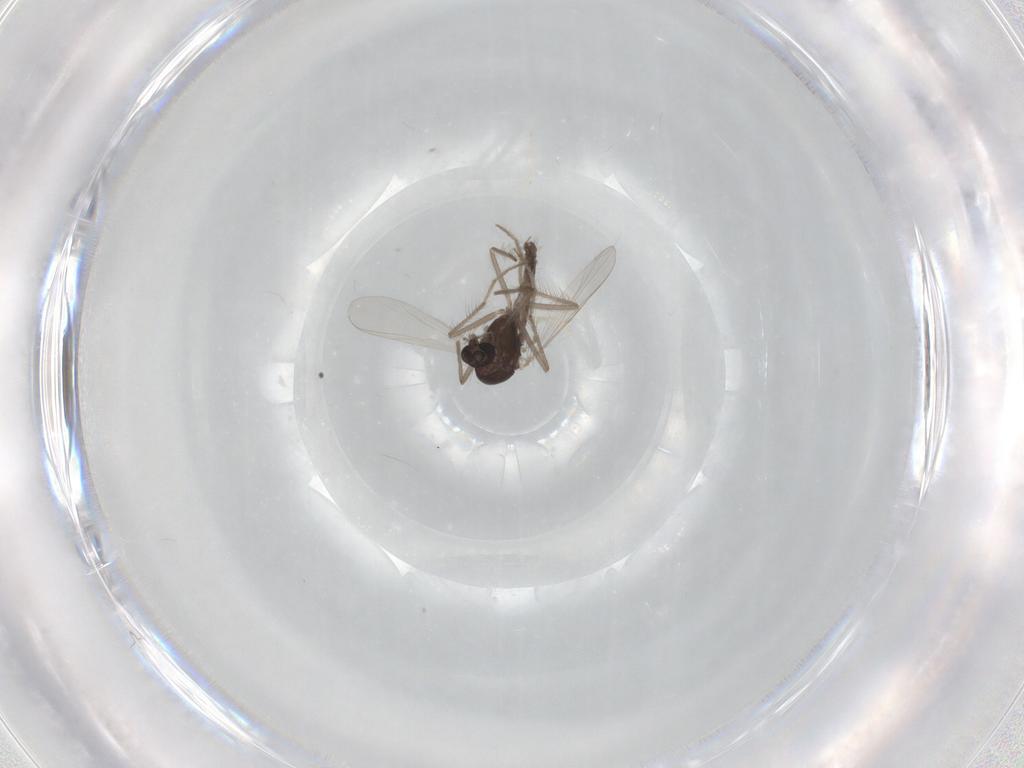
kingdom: Animalia
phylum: Arthropoda
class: Insecta
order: Diptera
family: Chironomidae
